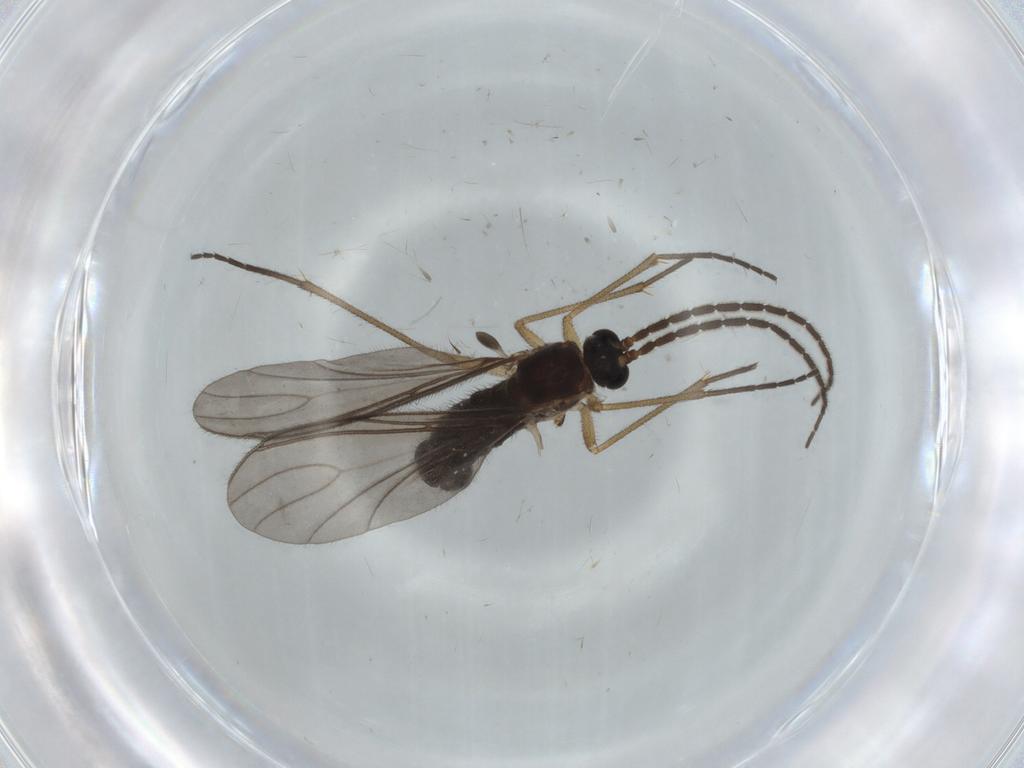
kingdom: Animalia
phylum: Arthropoda
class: Insecta
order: Diptera
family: Sciaridae
